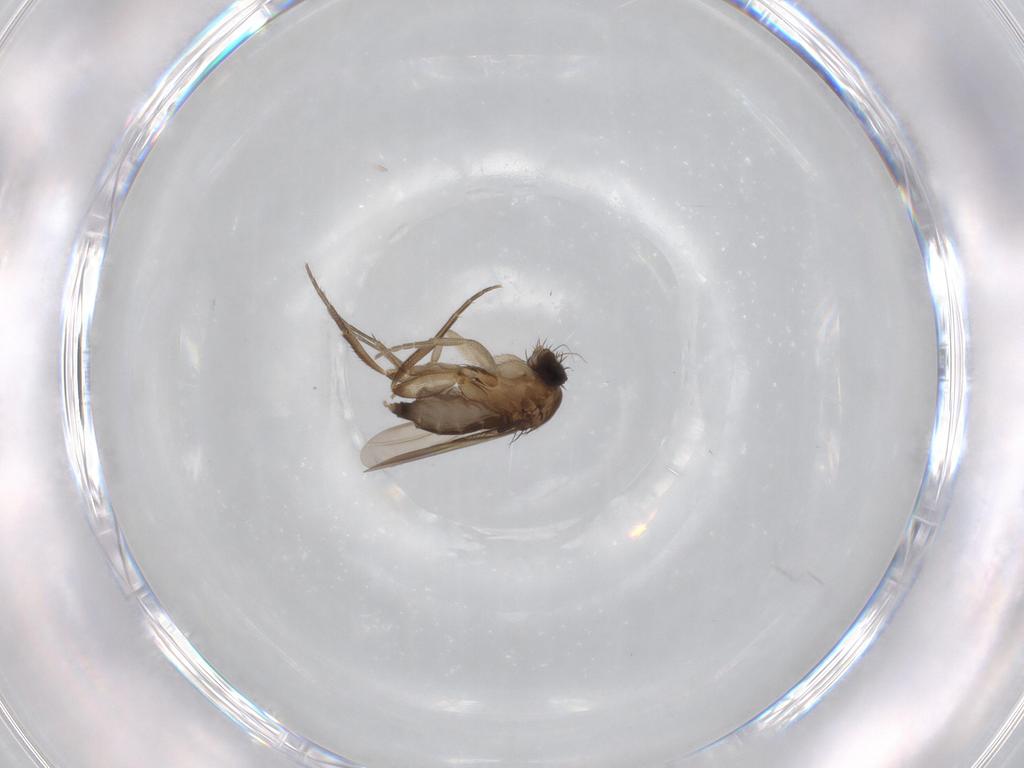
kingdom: Animalia
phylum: Arthropoda
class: Insecta
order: Diptera
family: Phoridae
